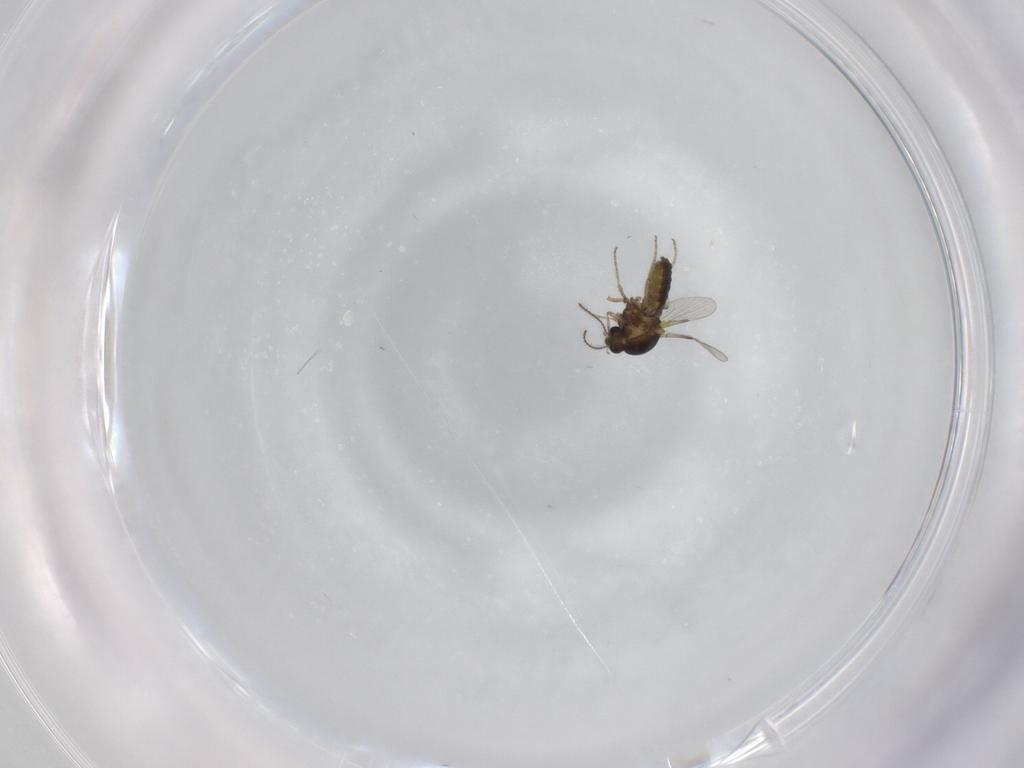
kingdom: Animalia
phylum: Arthropoda
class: Insecta
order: Diptera
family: Ceratopogonidae
